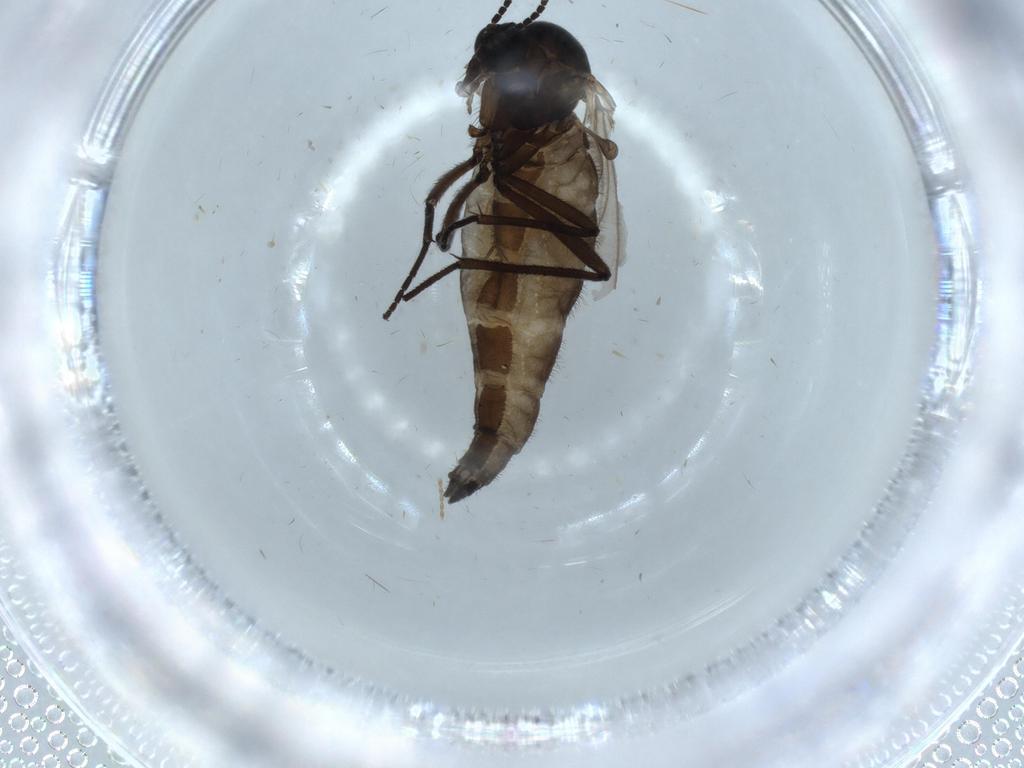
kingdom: Animalia
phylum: Arthropoda
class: Insecta
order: Diptera
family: Sciaridae
